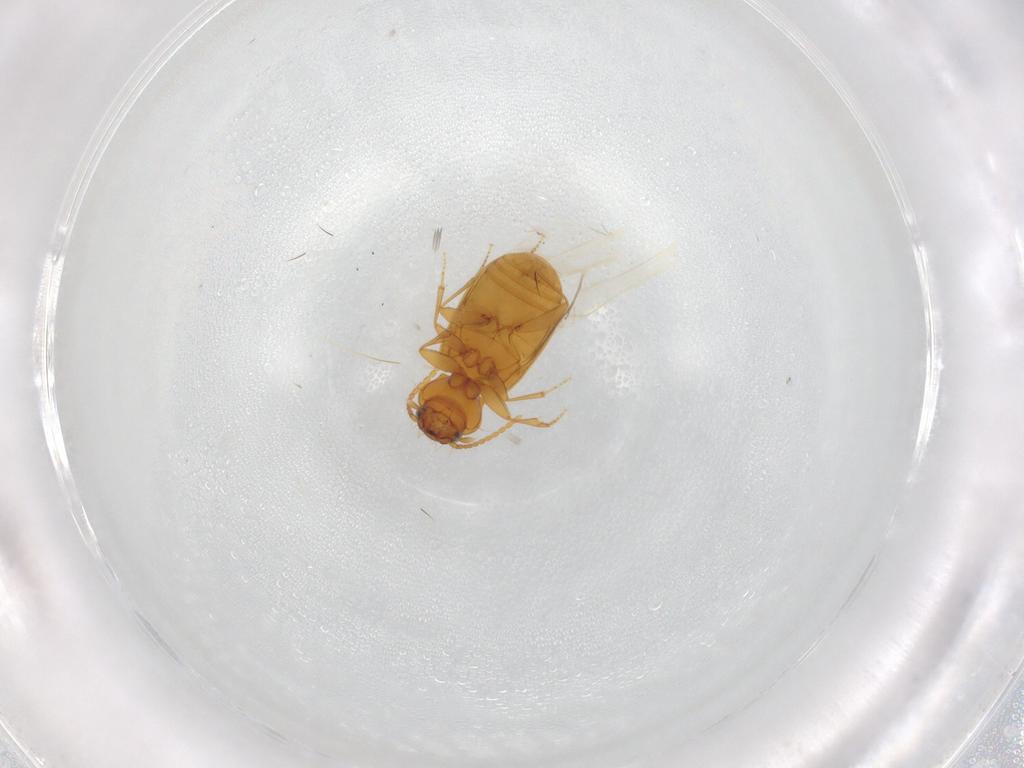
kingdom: Animalia
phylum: Arthropoda
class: Insecta
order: Coleoptera
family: Carabidae
